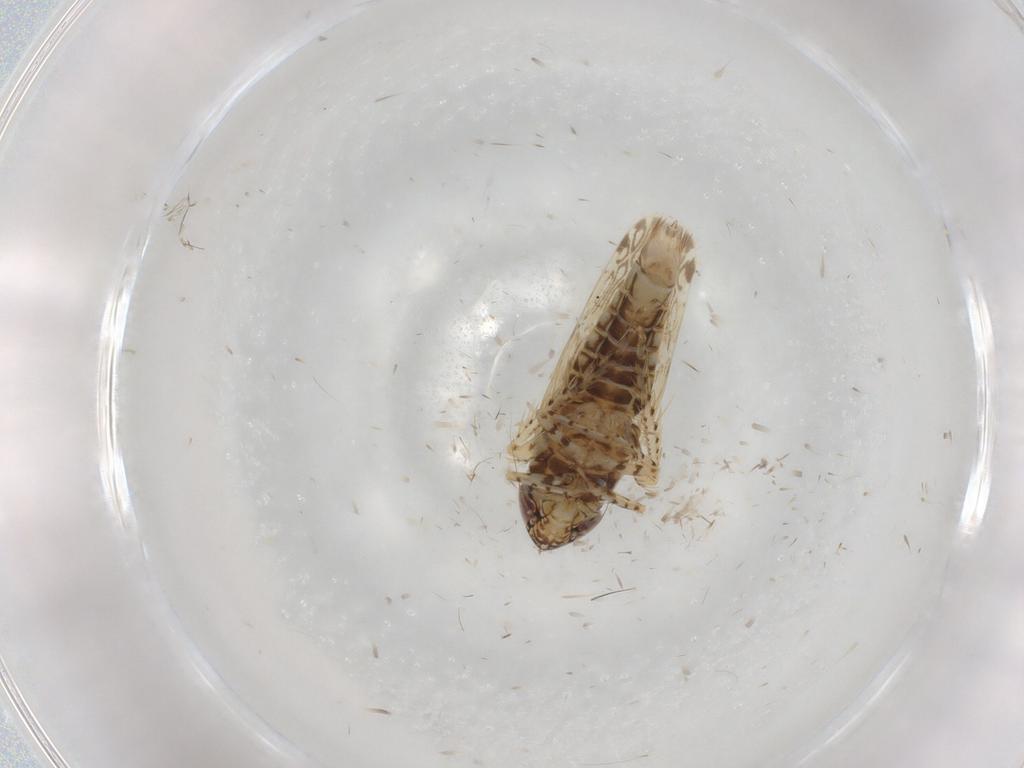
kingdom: Animalia
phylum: Arthropoda
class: Insecta
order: Hemiptera
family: Cicadellidae
